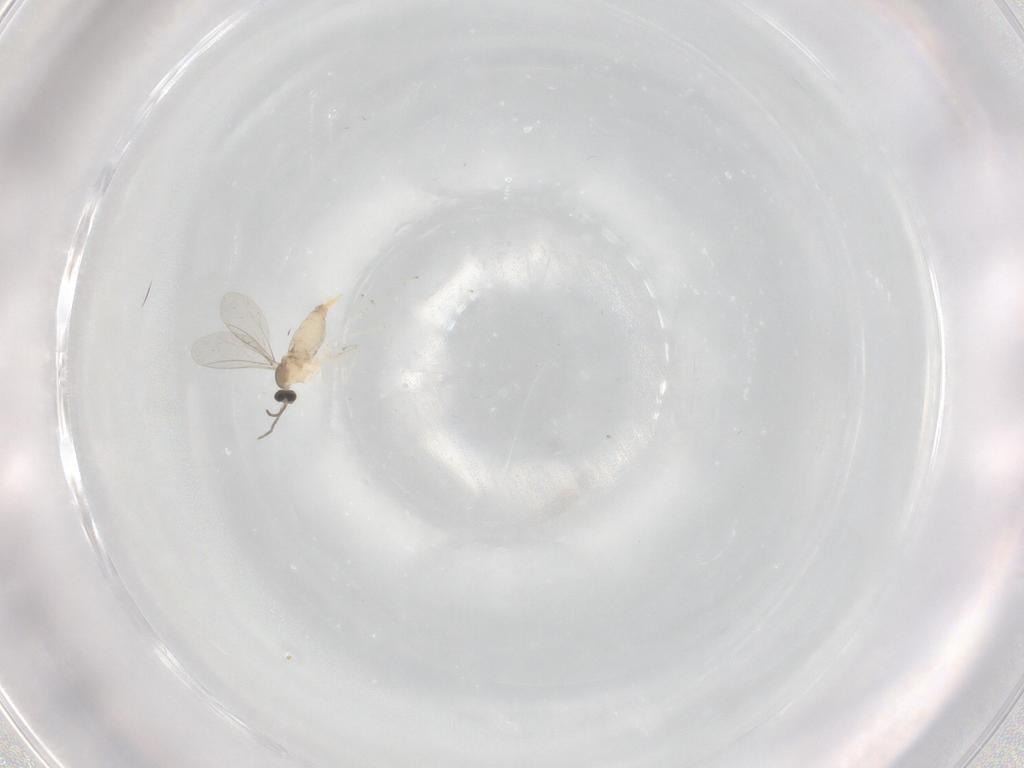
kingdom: Animalia
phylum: Arthropoda
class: Insecta
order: Diptera
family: Cecidomyiidae
